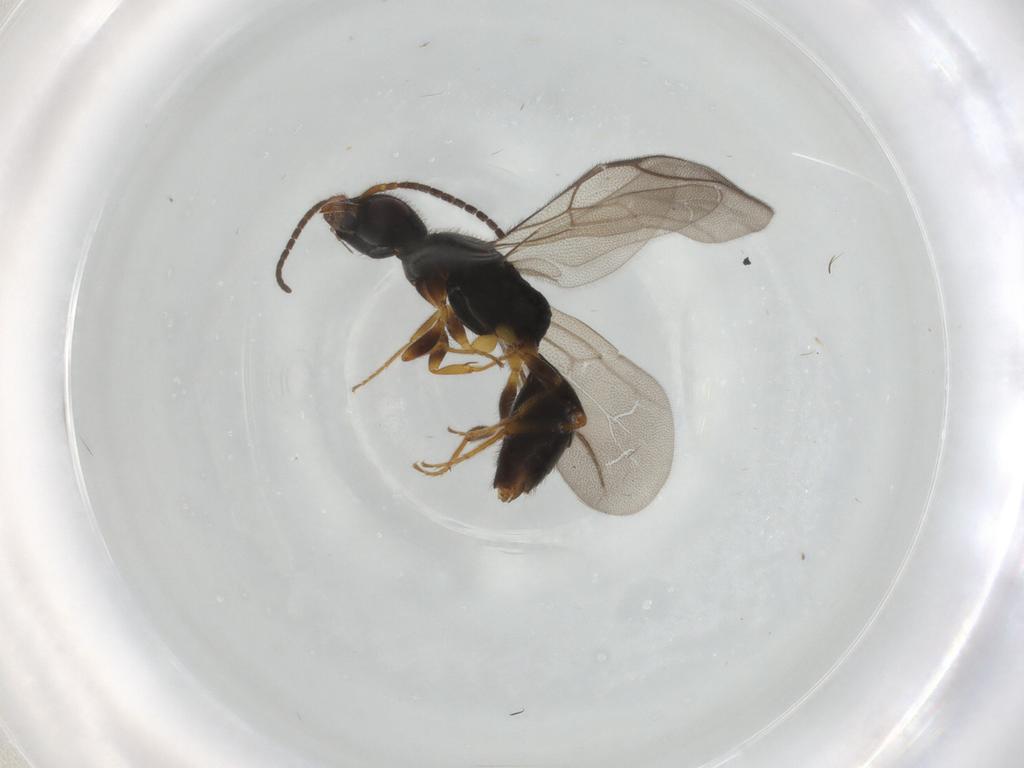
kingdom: Animalia
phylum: Arthropoda
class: Insecta
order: Hymenoptera
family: Bethylidae
